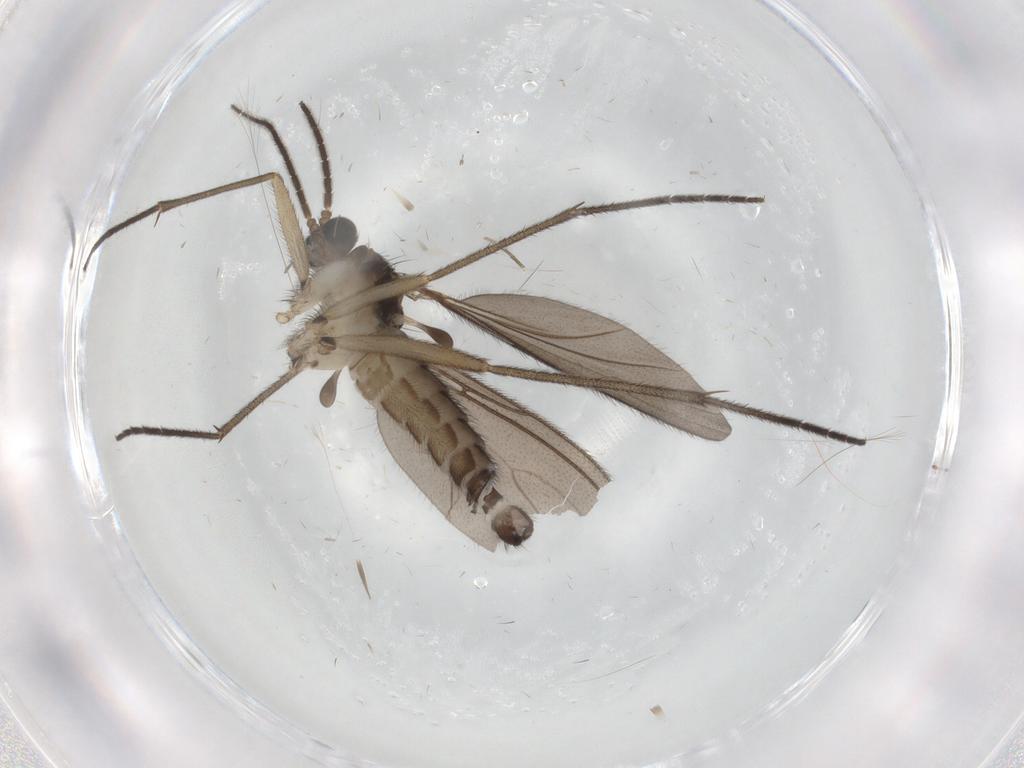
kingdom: Animalia
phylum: Arthropoda
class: Insecta
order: Diptera
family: Sciaridae
